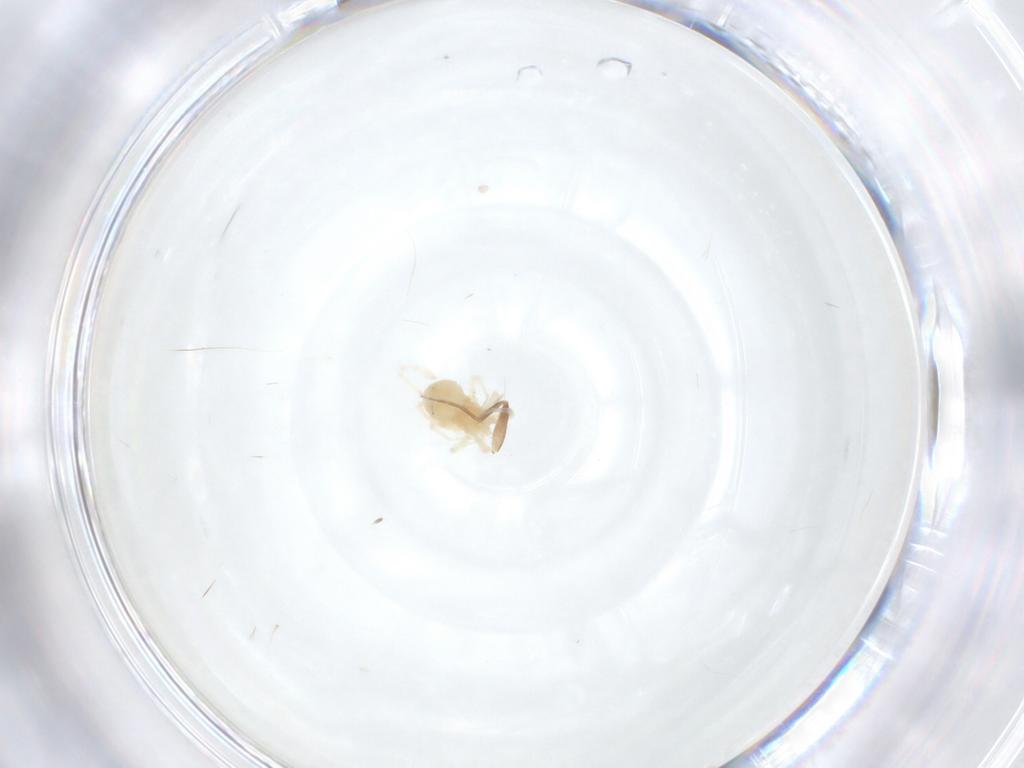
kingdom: Animalia
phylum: Arthropoda
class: Arachnida
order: Trombidiformes
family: Anystidae
